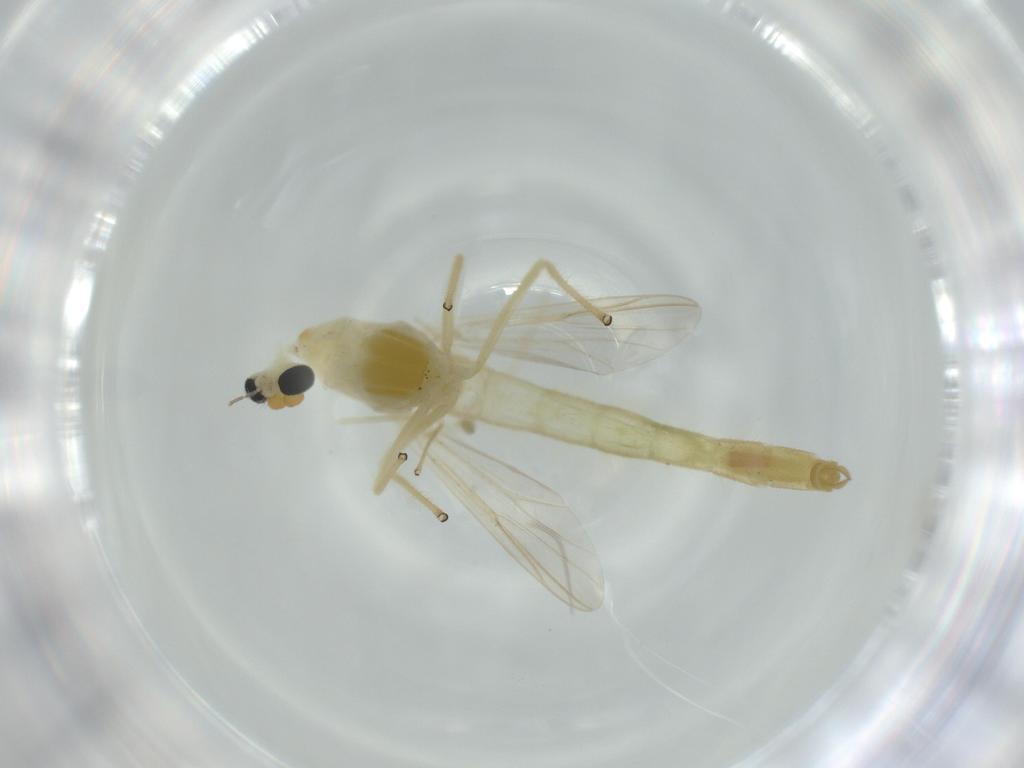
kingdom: Animalia
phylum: Arthropoda
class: Insecta
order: Diptera
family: Chironomidae
